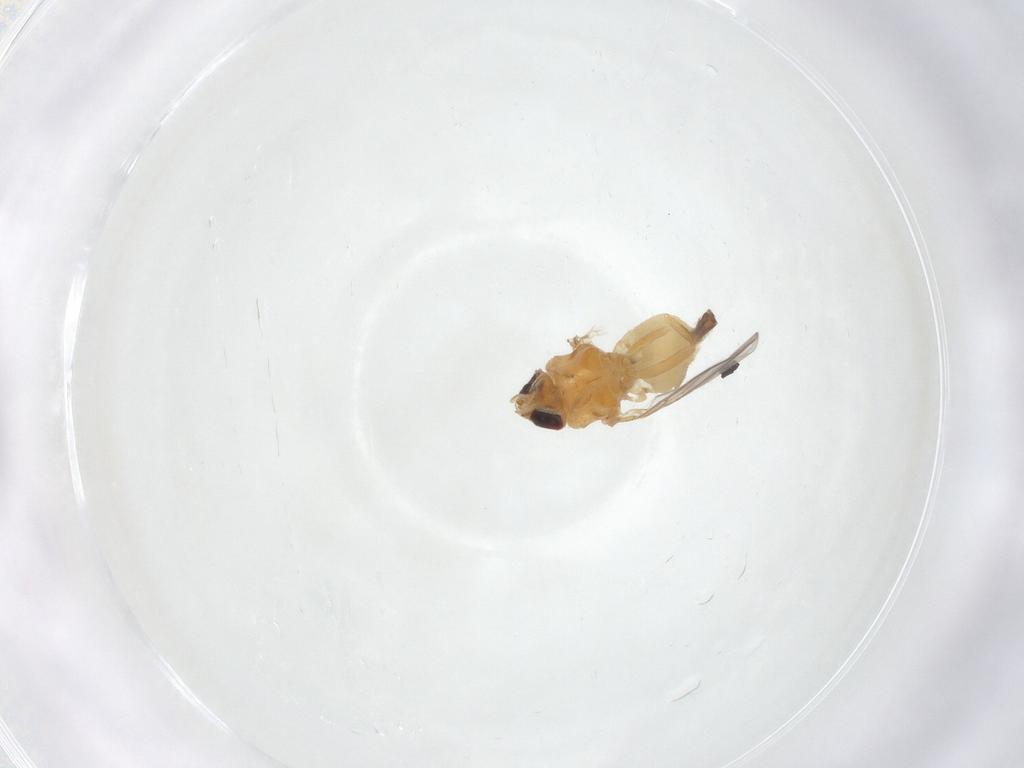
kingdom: Animalia
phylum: Arthropoda
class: Insecta
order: Diptera
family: Chloropidae
